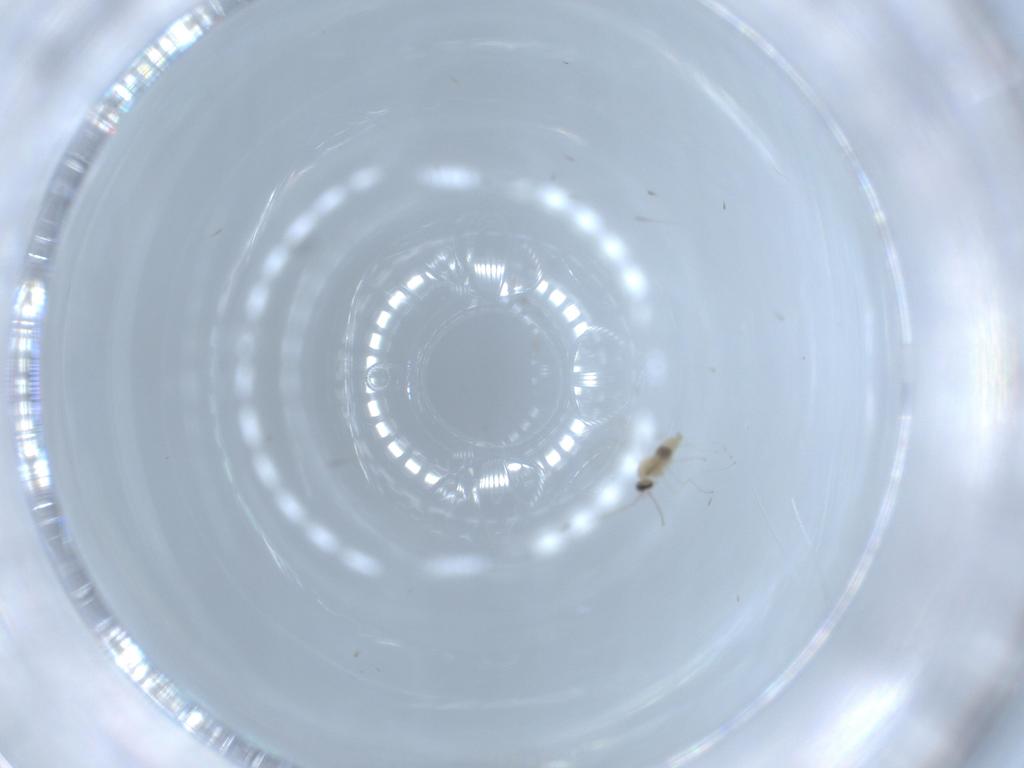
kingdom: Animalia
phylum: Arthropoda
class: Insecta
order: Diptera
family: Cecidomyiidae
